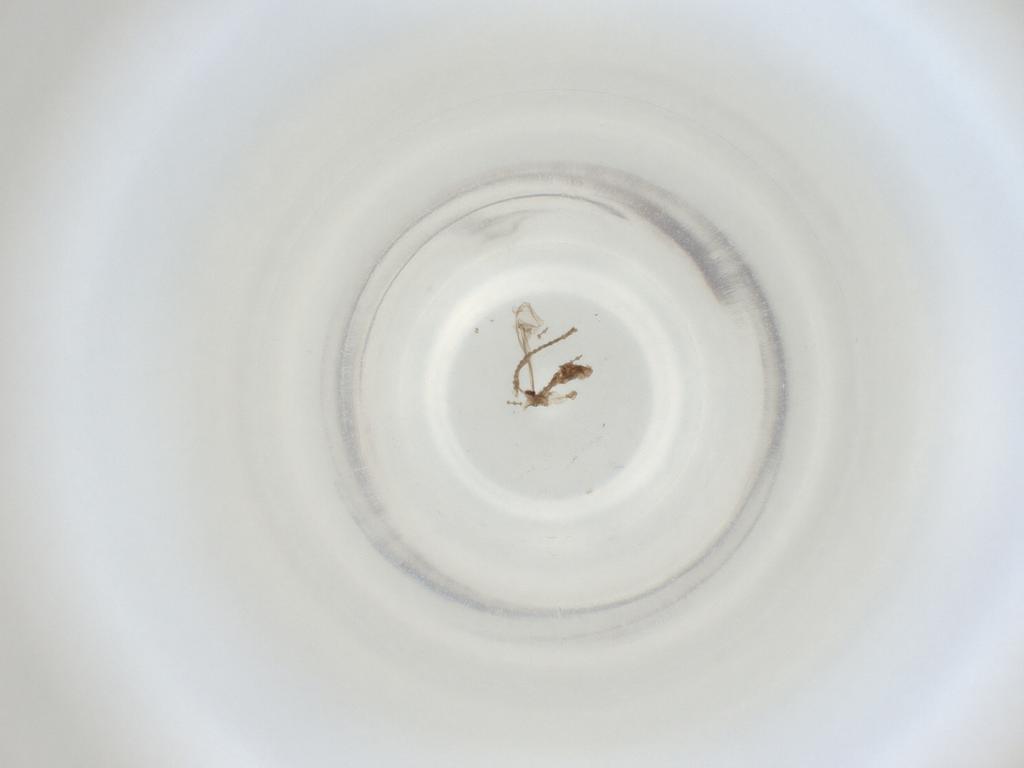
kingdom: Animalia
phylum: Arthropoda
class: Insecta
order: Diptera
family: Cecidomyiidae
